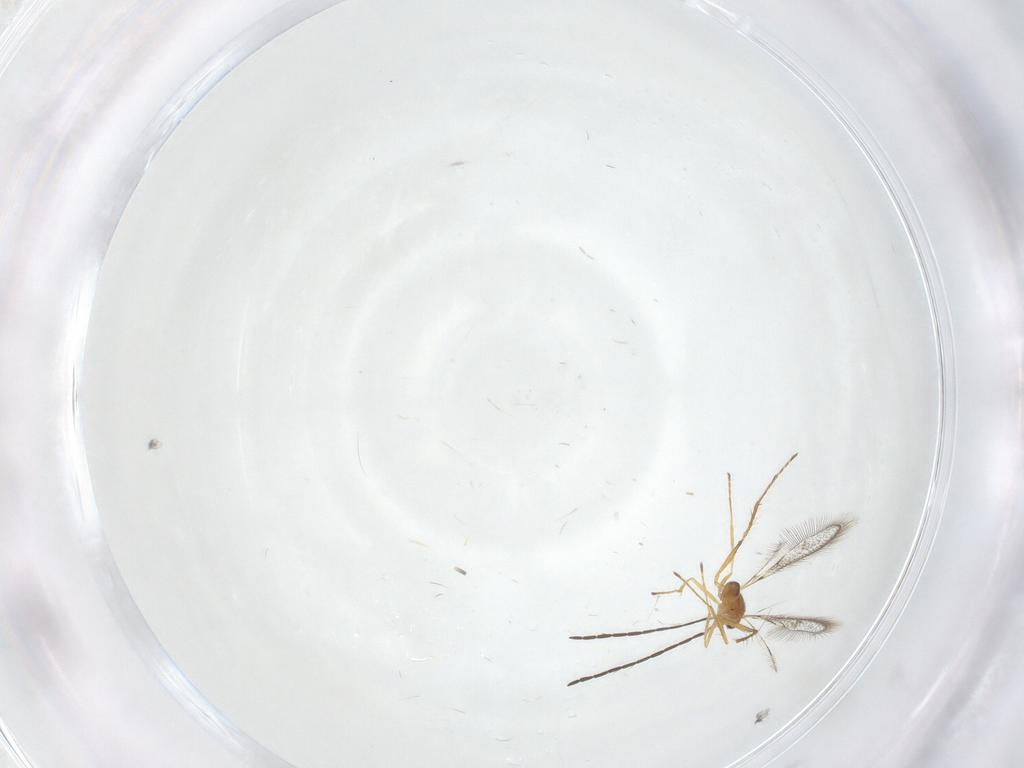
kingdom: Animalia
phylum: Arthropoda
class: Insecta
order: Hymenoptera
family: Mymaridae
